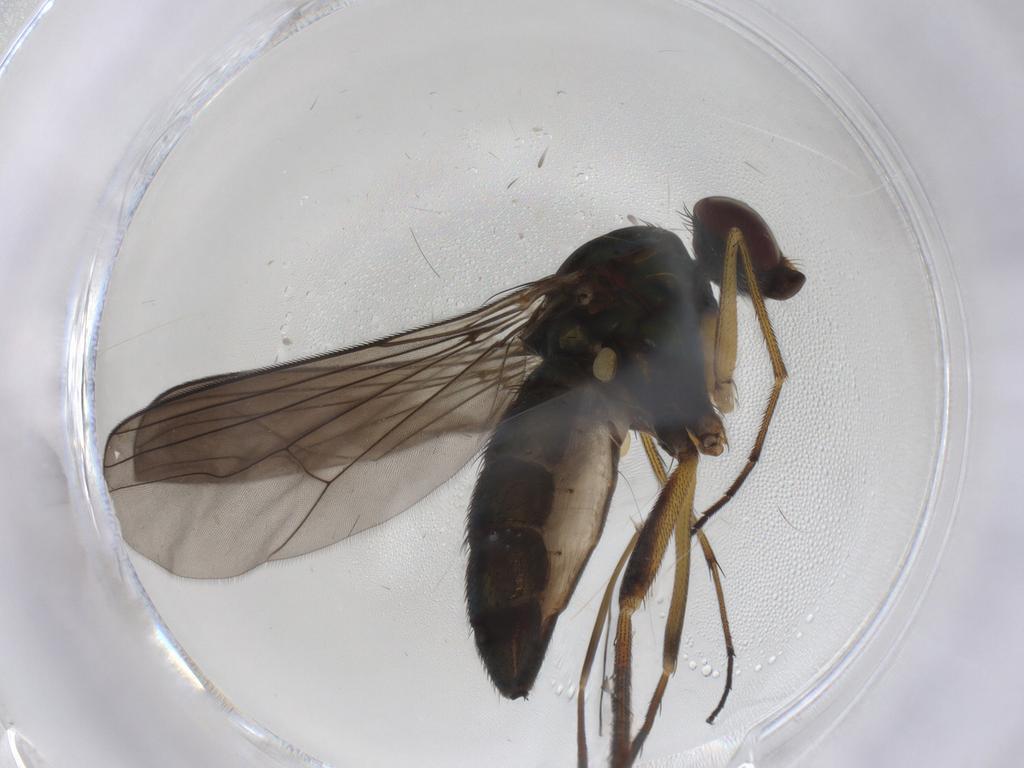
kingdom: Animalia
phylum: Arthropoda
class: Insecta
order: Diptera
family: Dolichopodidae
